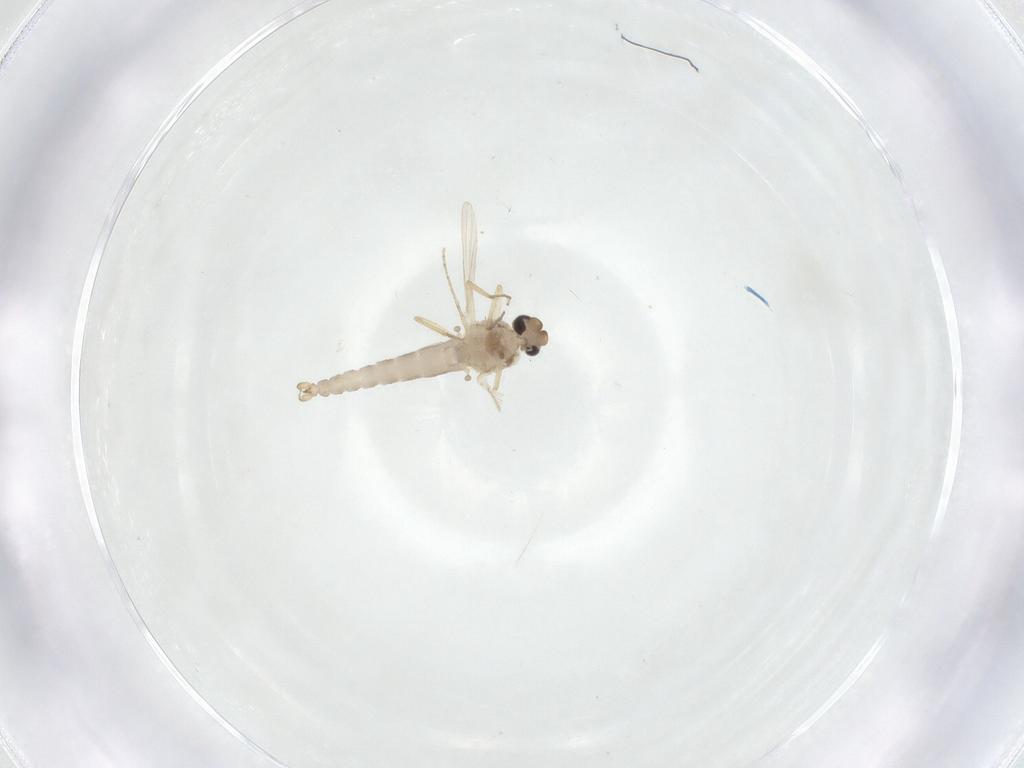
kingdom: Animalia
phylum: Arthropoda
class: Insecta
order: Diptera
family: Ceratopogonidae
